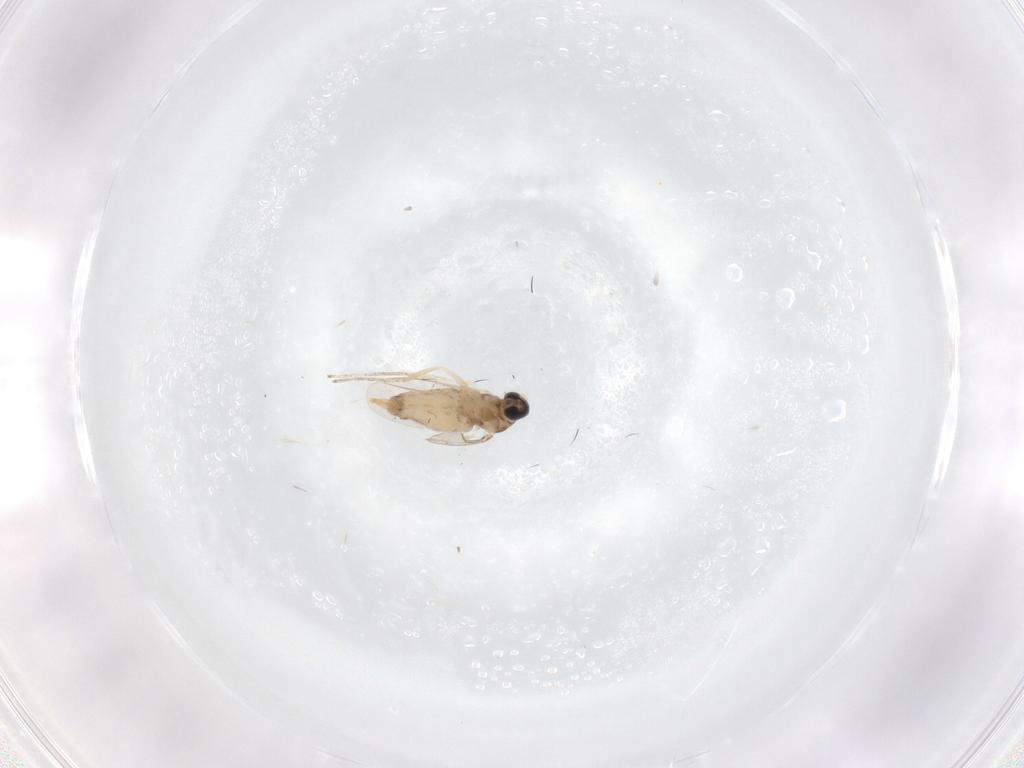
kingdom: Animalia
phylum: Arthropoda
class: Insecta
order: Diptera
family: Cecidomyiidae
